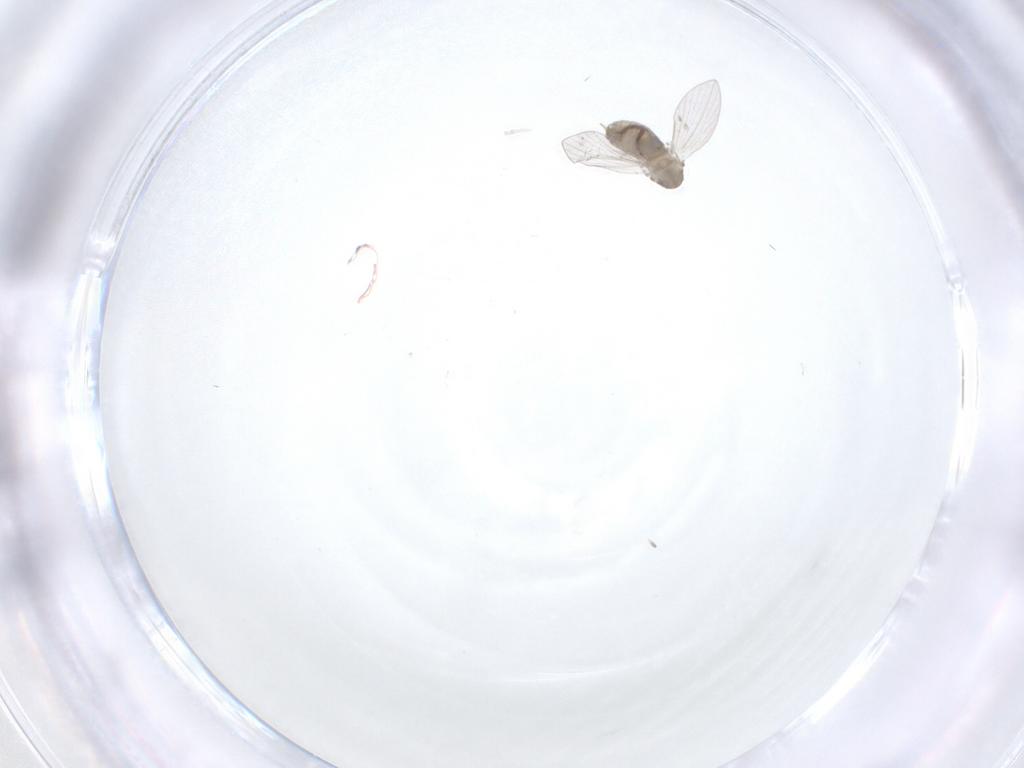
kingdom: Animalia
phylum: Arthropoda
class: Insecta
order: Diptera
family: Psychodidae
